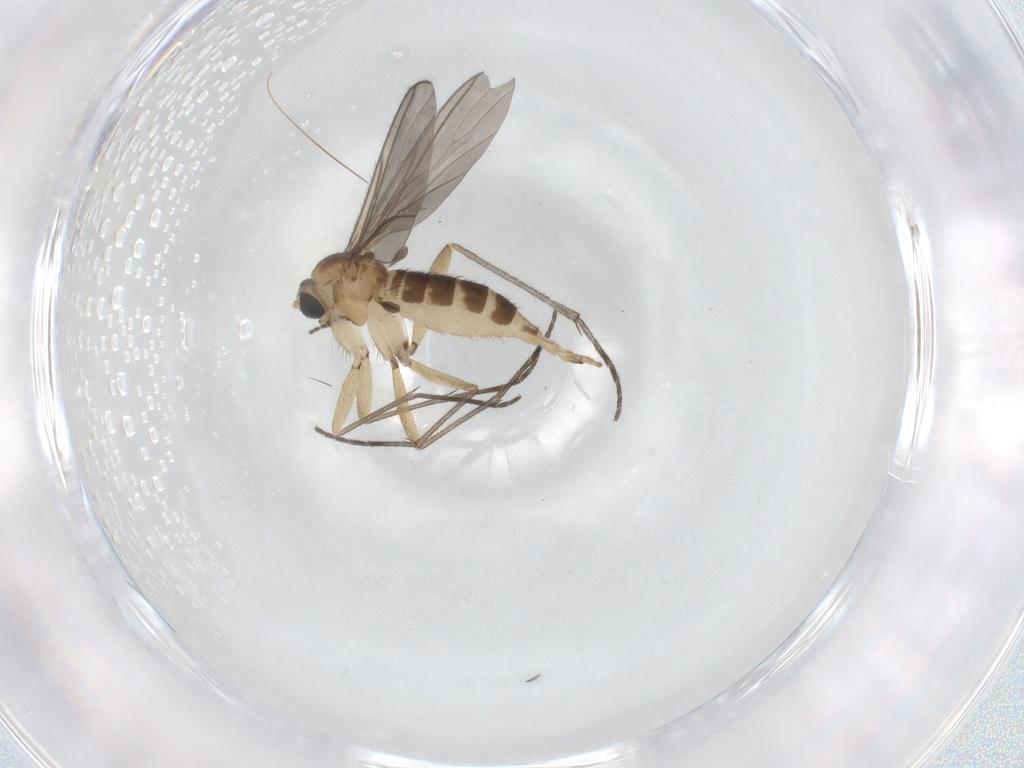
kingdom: Animalia
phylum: Arthropoda
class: Insecta
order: Diptera
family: Sciaridae
